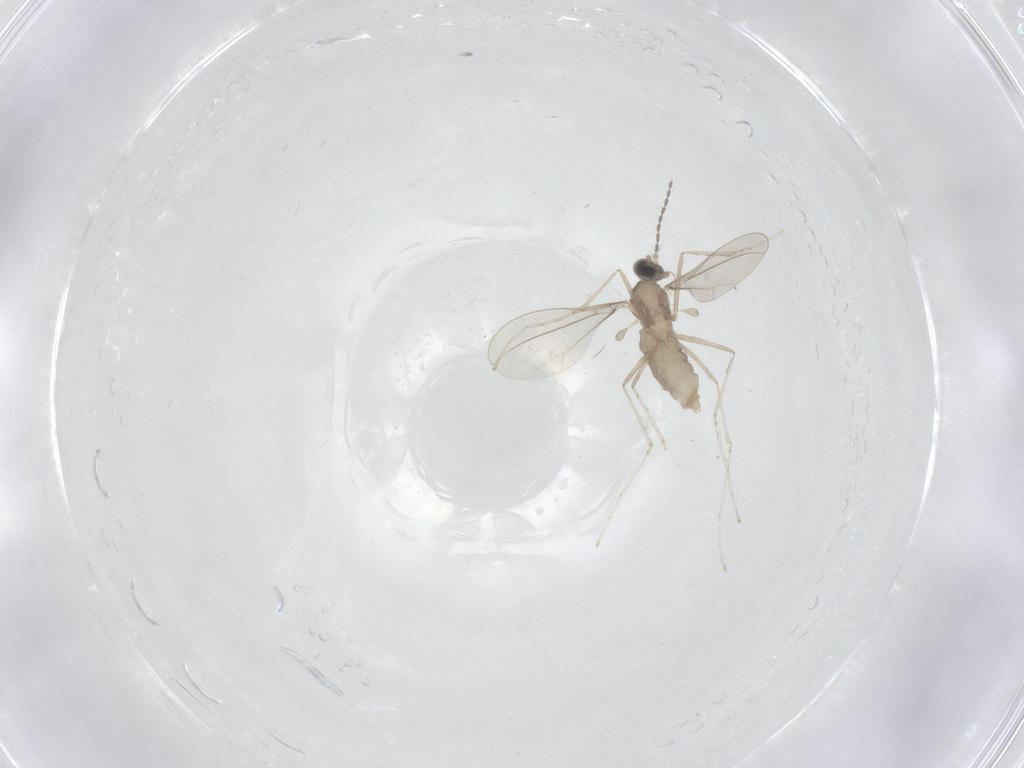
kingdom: Animalia
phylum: Arthropoda
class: Insecta
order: Diptera
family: Cecidomyiidae
